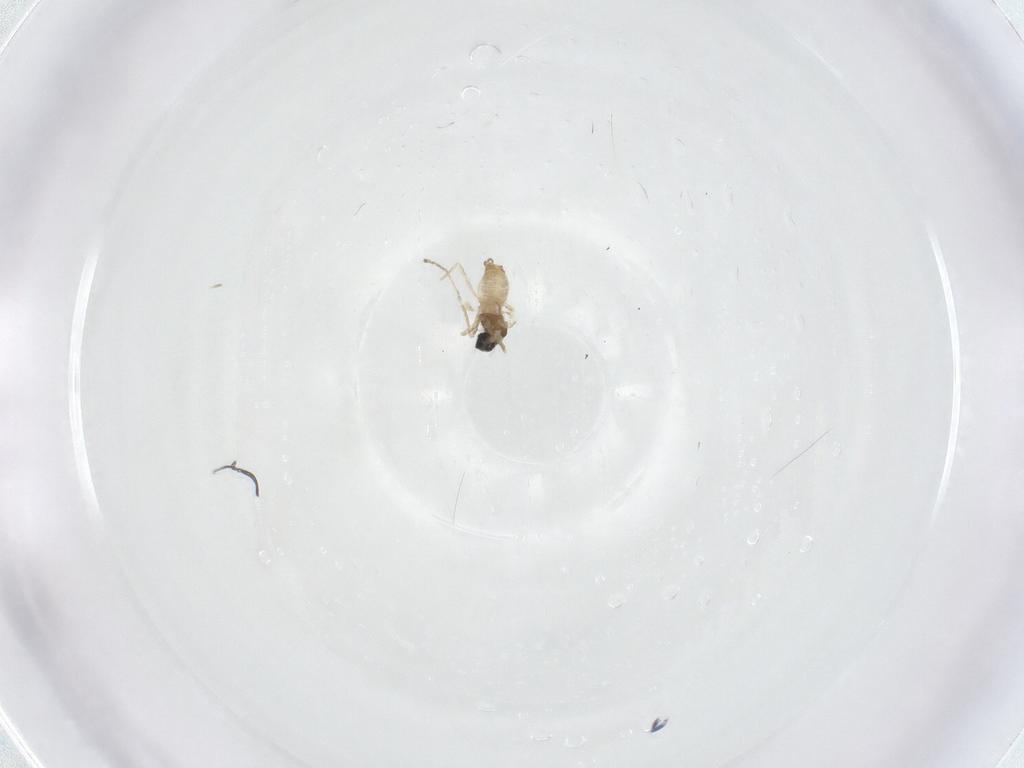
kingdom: Animalia
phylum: Arthropoda
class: Insecta
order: Diptera
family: Cecidomyiidae
